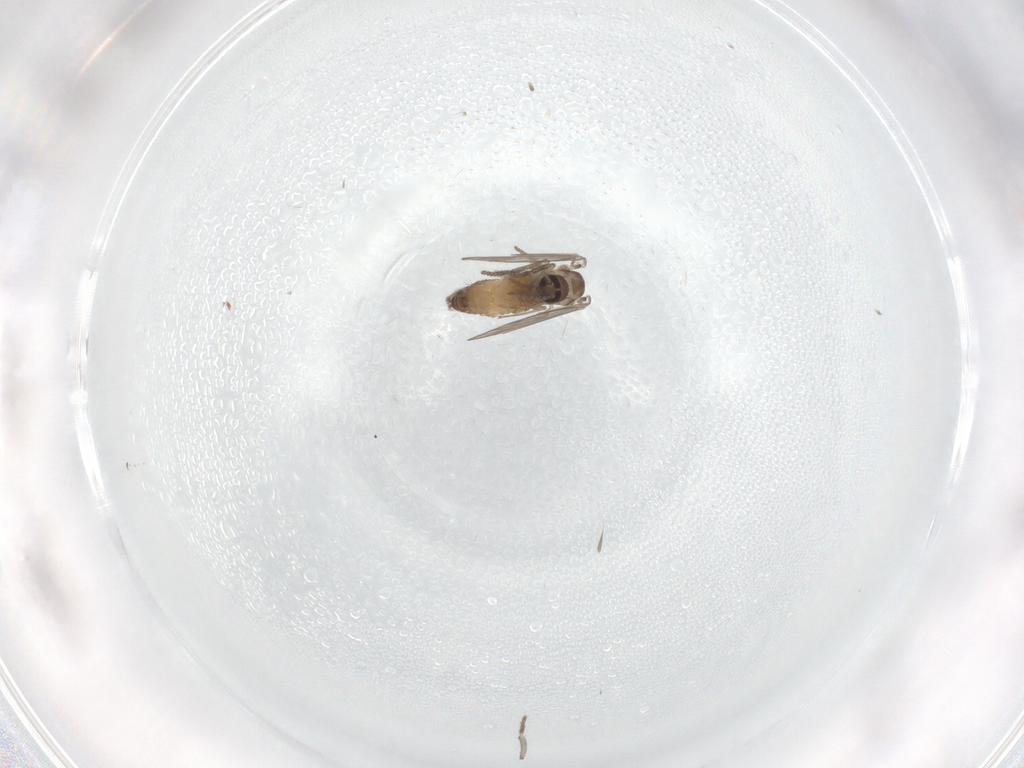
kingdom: Animalia
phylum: Arthropoda
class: Insecta
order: Diptera
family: Psychodidae
